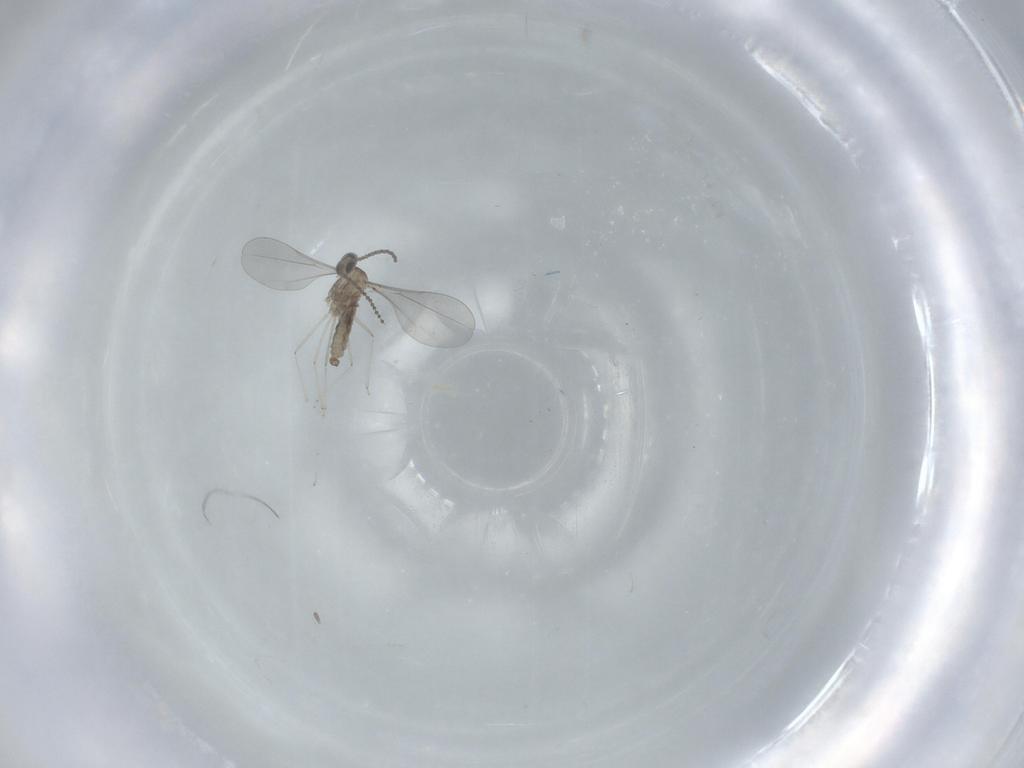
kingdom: Animalia
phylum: Arthropoda
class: Insecta
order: Diptera
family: Cecidomyiidae
